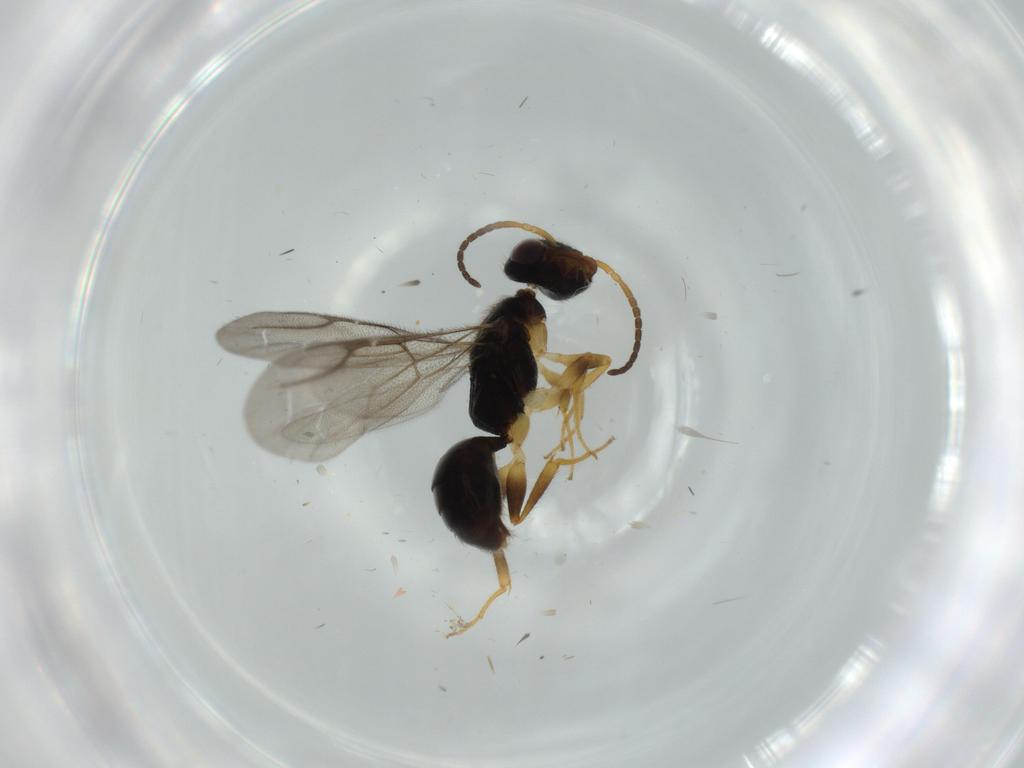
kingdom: Animalia
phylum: Arthropoda
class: Insecta
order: Hymenoptera
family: Bethylidae
